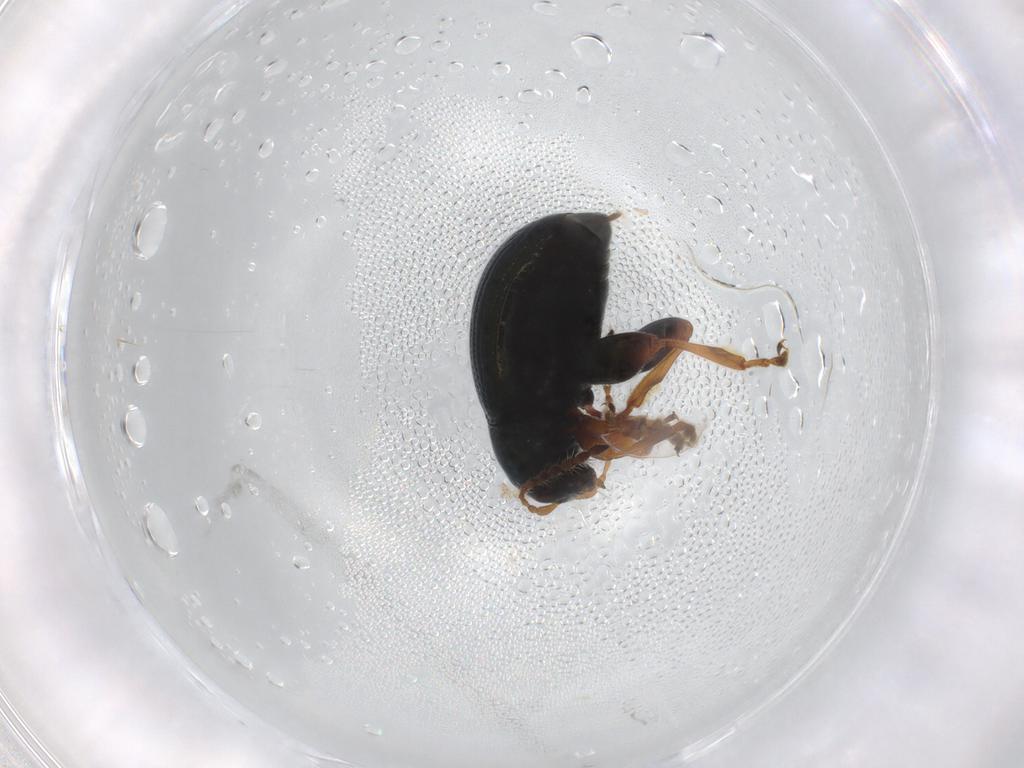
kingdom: Animalia
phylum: Arthropoda
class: Insecta
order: Coleoptera
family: Chrysomelidae
